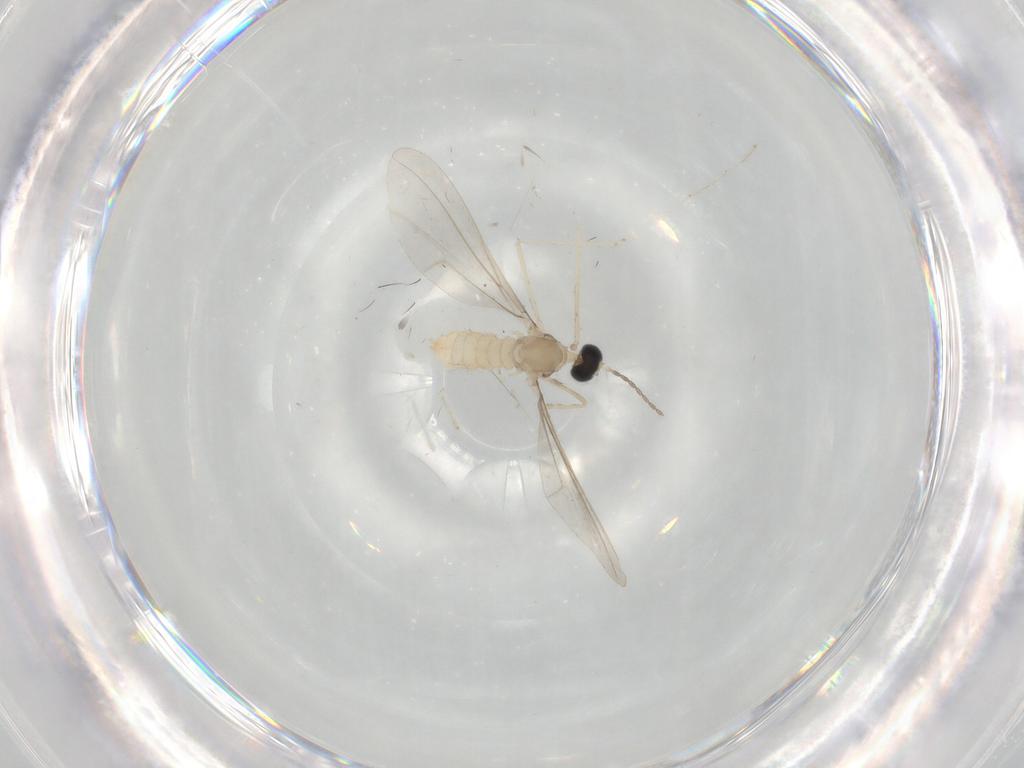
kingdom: Animalia
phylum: Arthropoda
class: Insecta
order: Diptera
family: Cecidomyiidae
